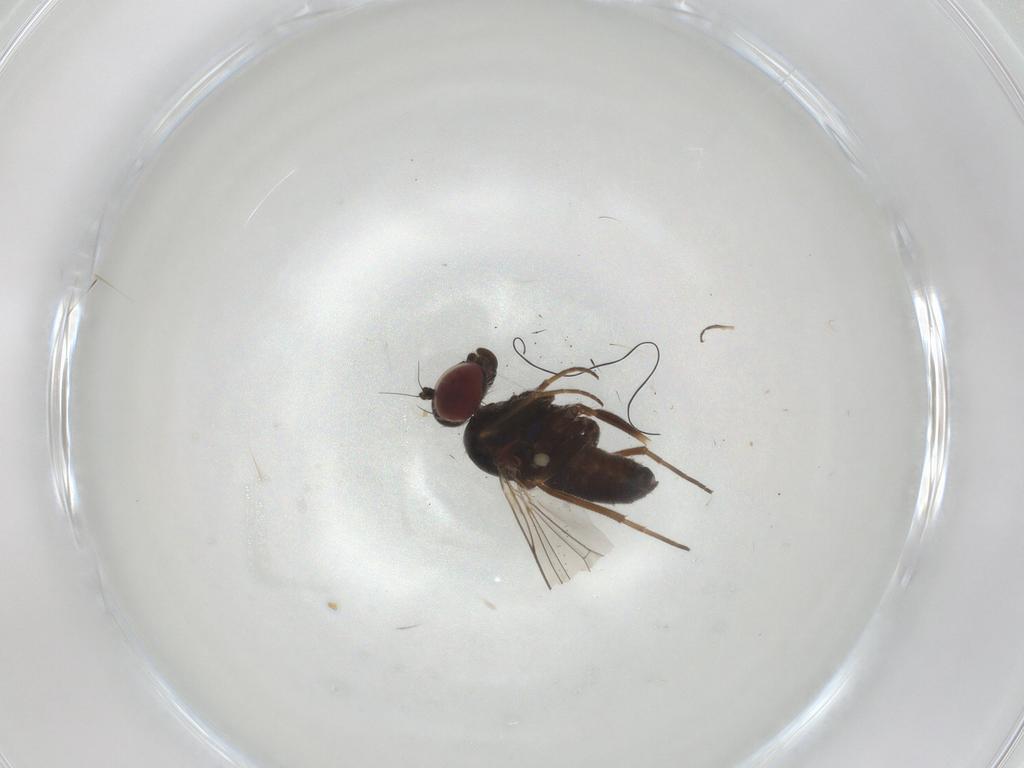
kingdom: Animalia
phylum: Arthropoda
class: Insecta
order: Diptera
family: Dolichopodidae
